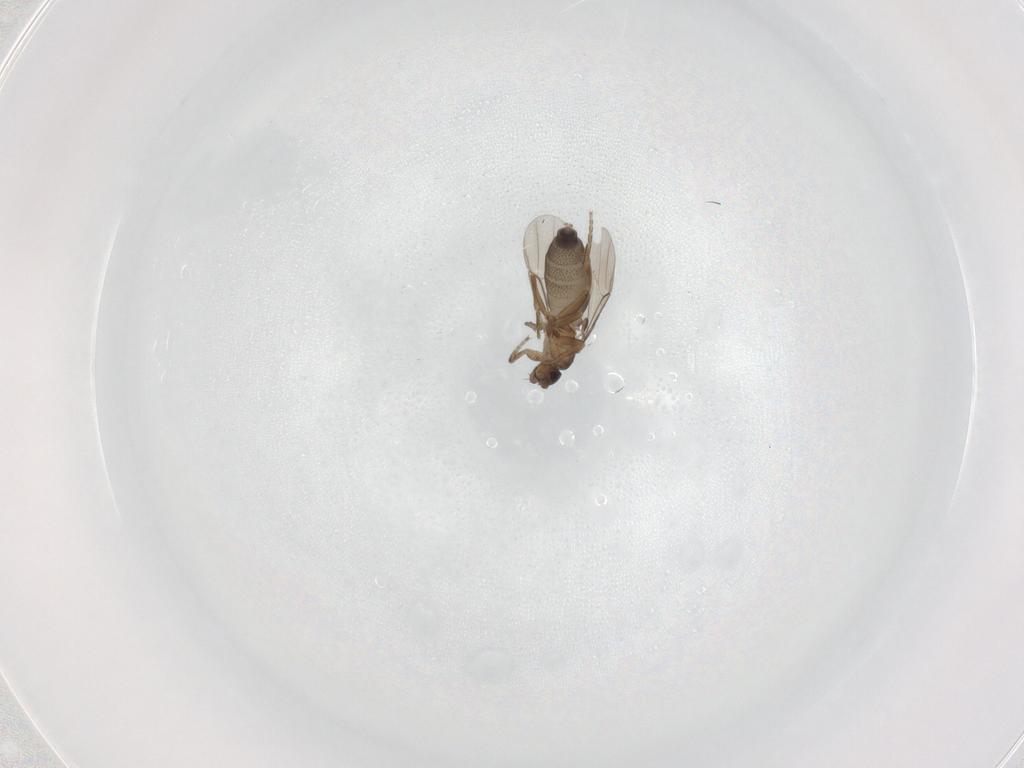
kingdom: Animalia
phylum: Arthropoda
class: Insecta
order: Diptera
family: Phoridae
